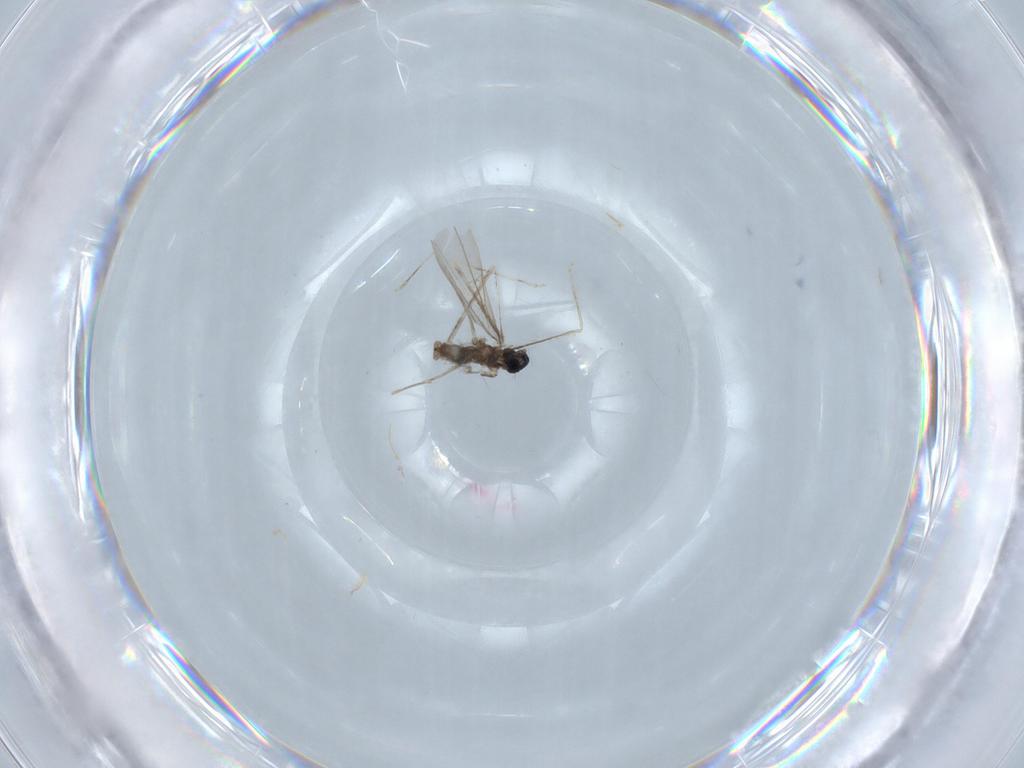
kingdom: Animalia
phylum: Arthropoda
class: Insecta
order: Diptera
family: Cecidomyiidae
